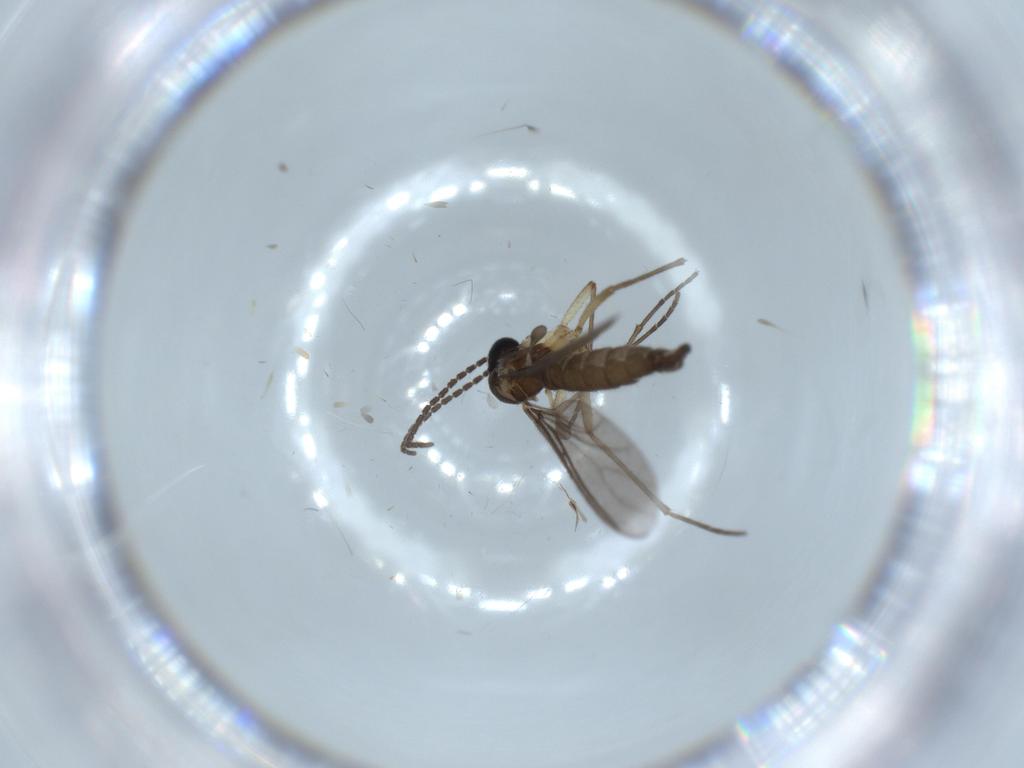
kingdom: Animalia
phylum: Arthropoda
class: Insecta
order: Diptera
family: Sciaridae
